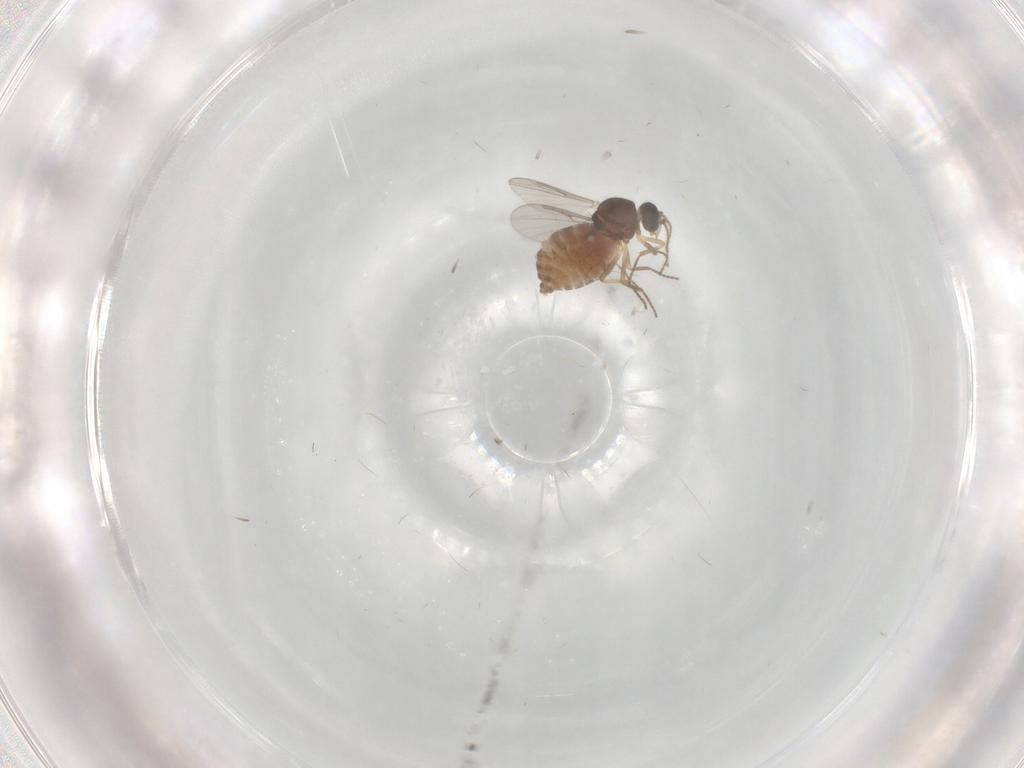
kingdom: Animalia
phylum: Arthropoda
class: Insecta
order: Diptera
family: Ceratopogonidae
